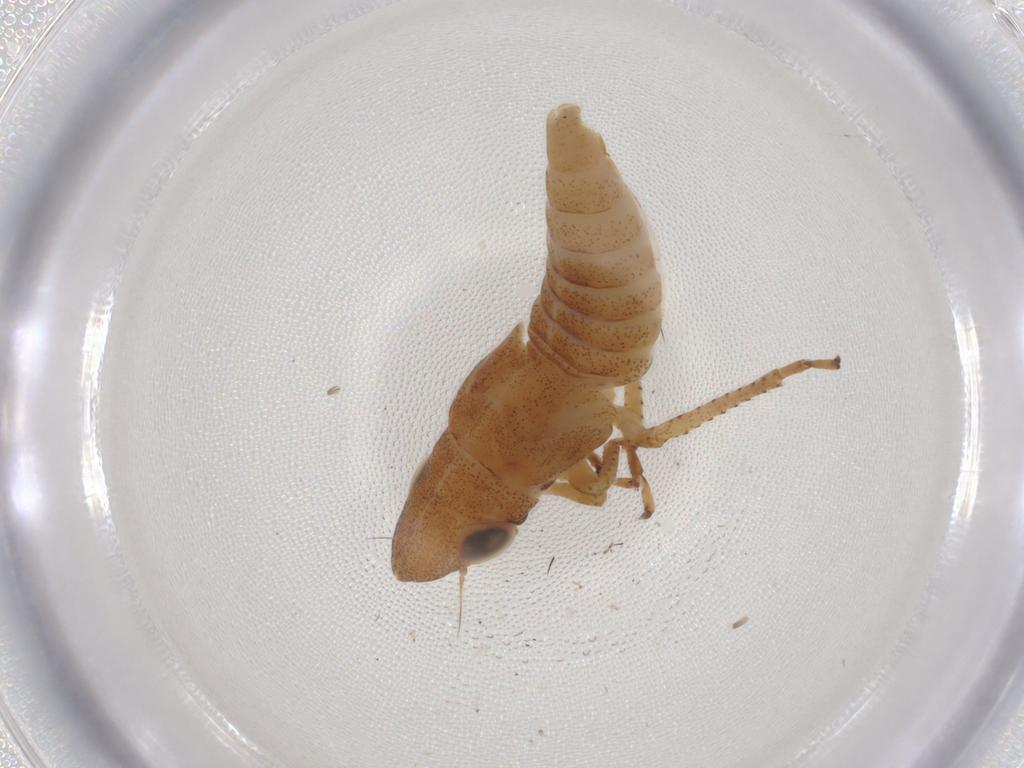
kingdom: Animalia
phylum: Arthropoda
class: Insecta
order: Hemiptera
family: Cicadellidae
